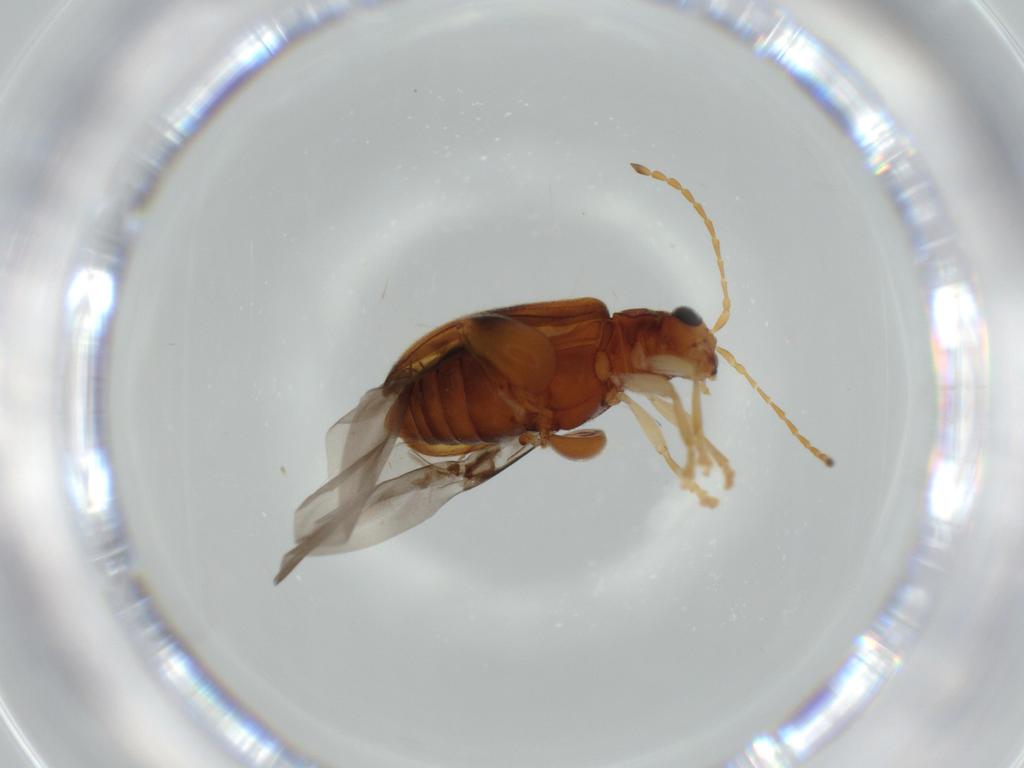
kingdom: Animalia
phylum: Arthropoda
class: Insecta
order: Coleoptera
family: Chrysomelidae
